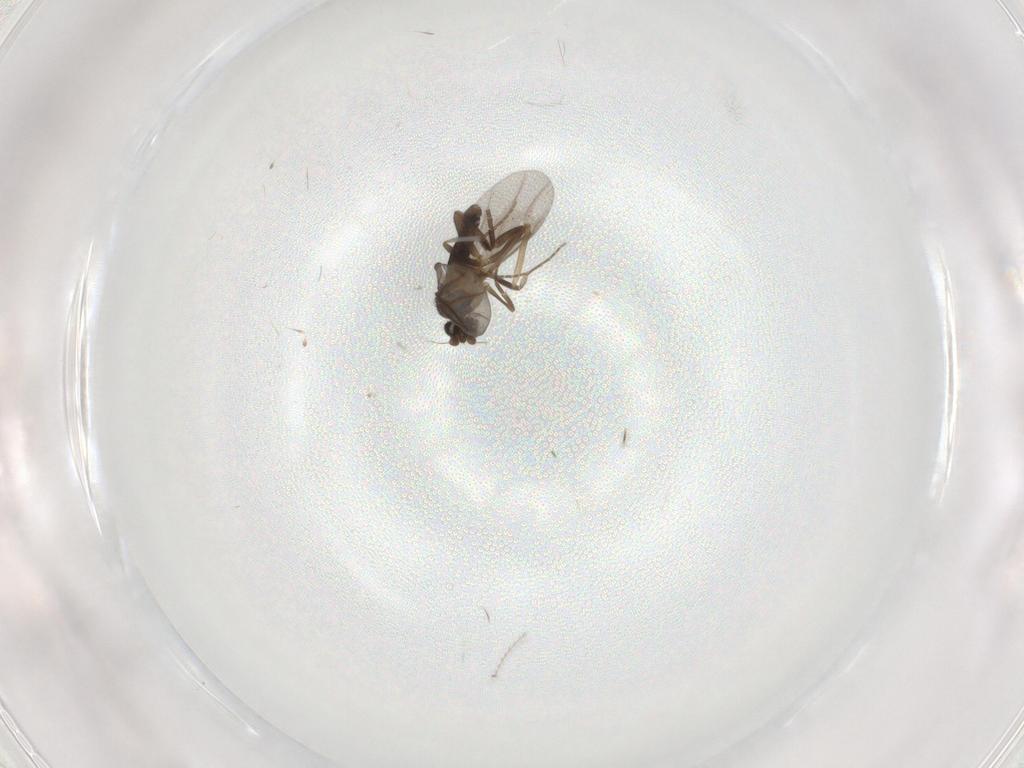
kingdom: Animalia
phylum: Arthropoda
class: Insecta
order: Diptera
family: Chironomidae
